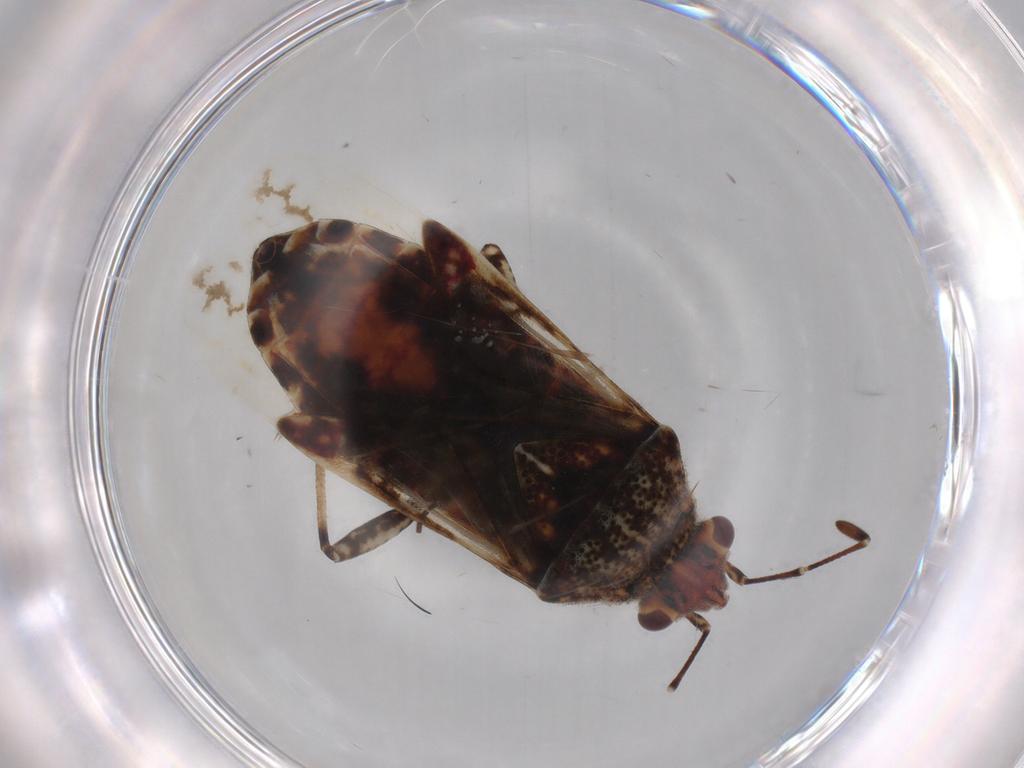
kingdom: Animalia
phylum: Arthropoda
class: Insecta
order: Hemiptera
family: Lygaeidae
